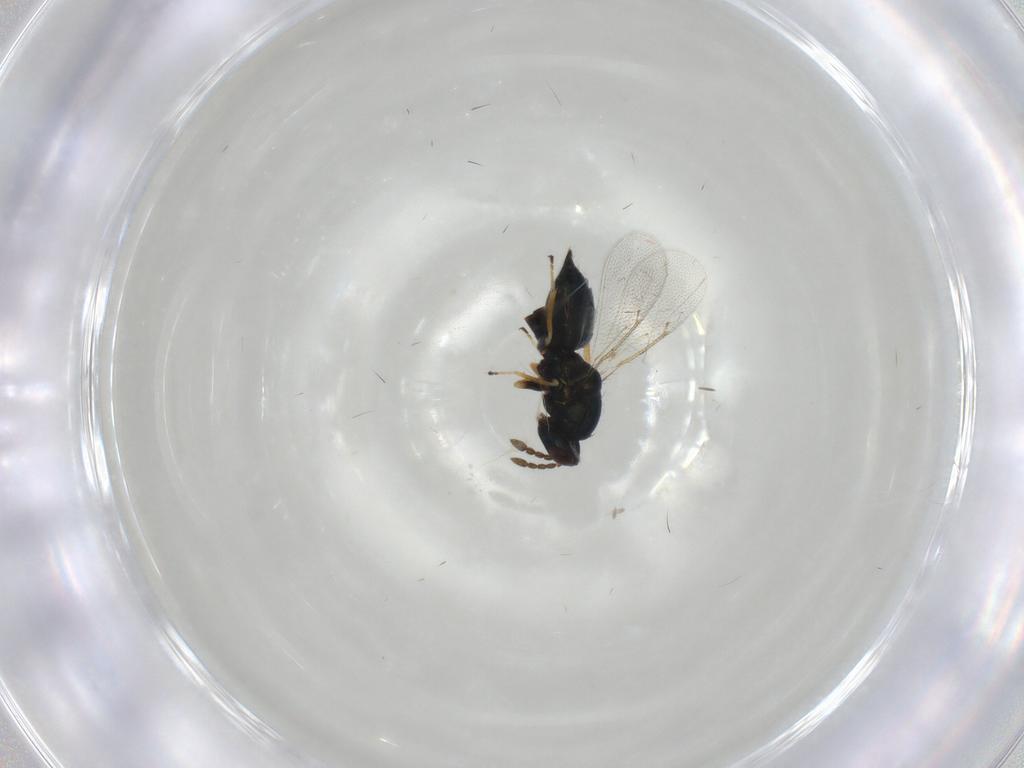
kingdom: Animalia
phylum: Arthropoda
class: Insecta
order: Hymenoptera
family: Eulophidae
